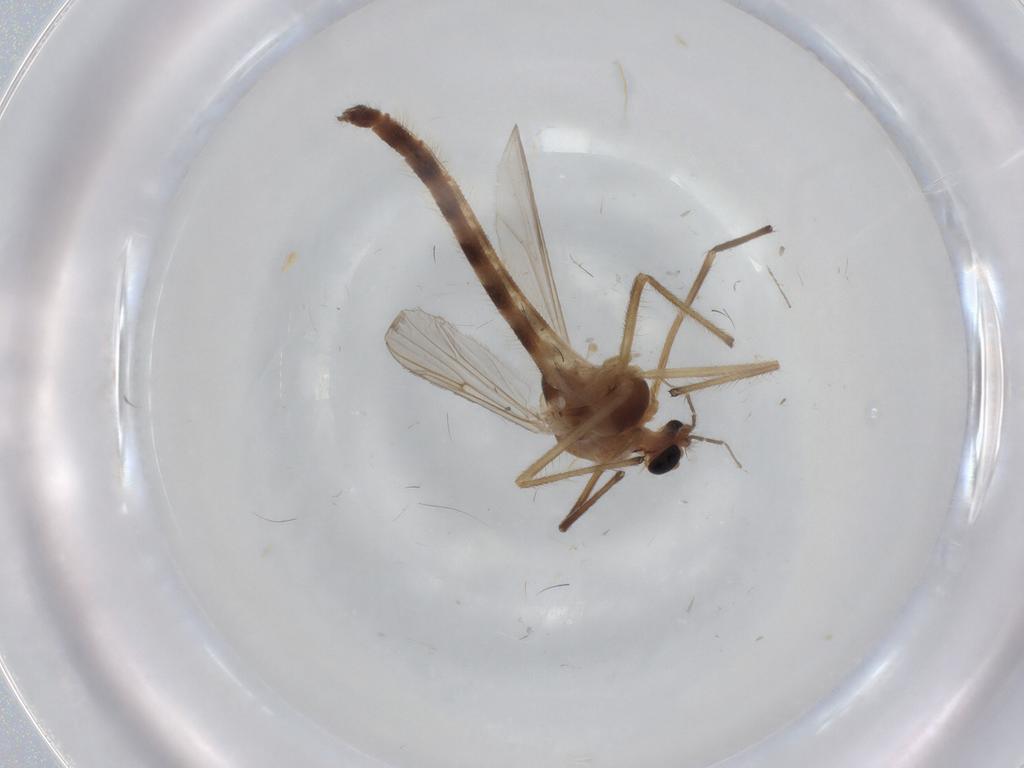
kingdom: Animalia
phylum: Arthropoda
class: Insecta
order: Diptera
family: Chironomidae
